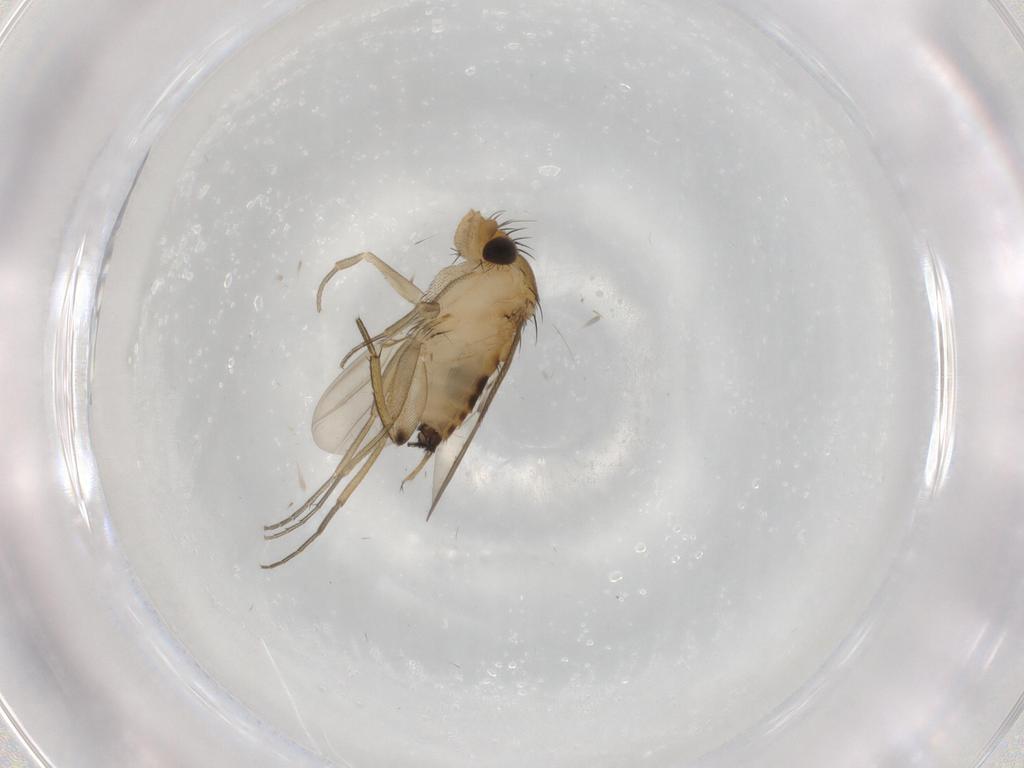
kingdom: Animalia
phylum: Arthropoda
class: Insecta
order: Diptera
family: Phoridae
